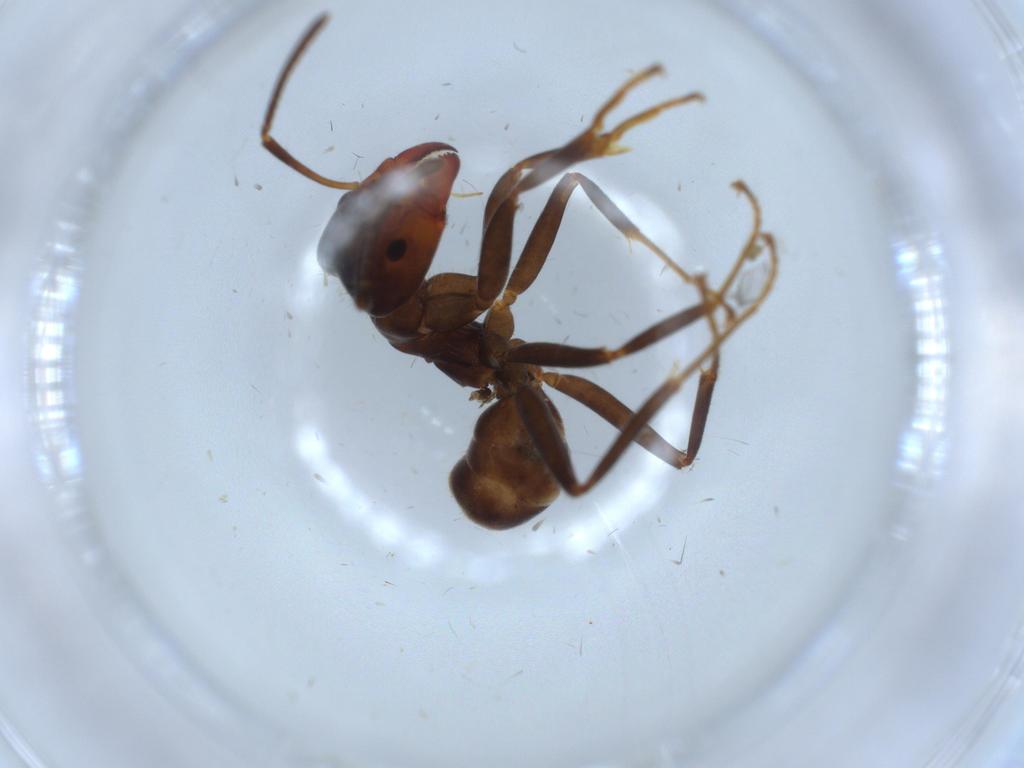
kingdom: Animalia
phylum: Arthropoda
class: Insecta
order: Hymenoptera
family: Formicidae
